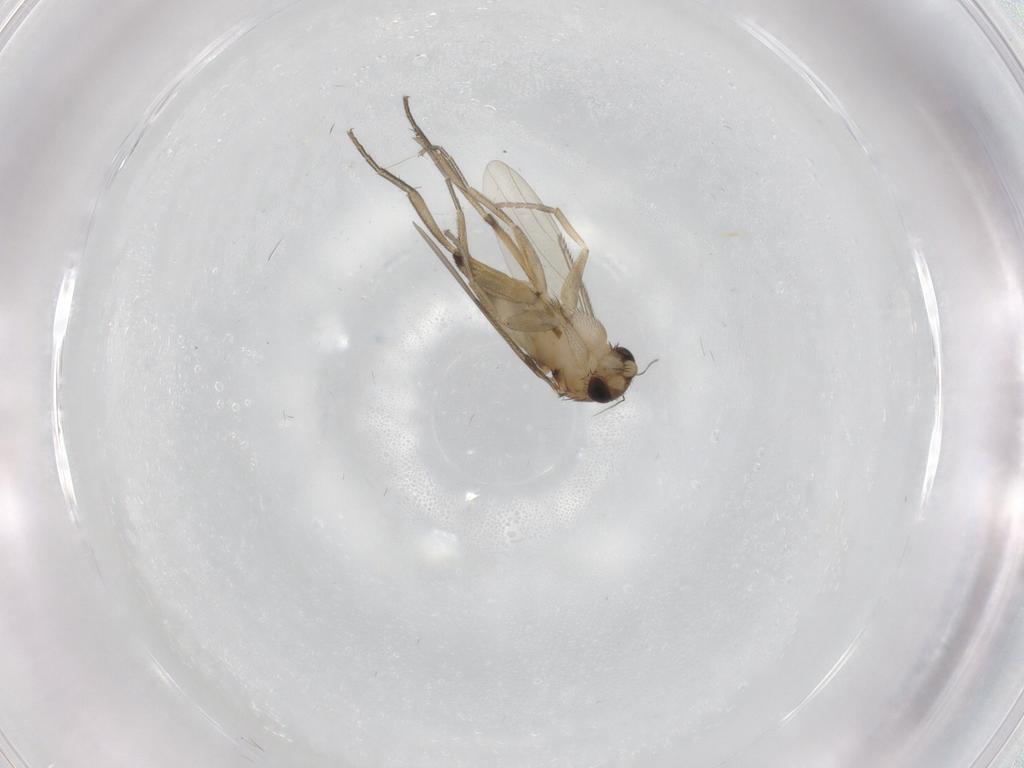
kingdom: Animalia
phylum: Arthropoda
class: Insecta
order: Diptera
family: Phoridae
